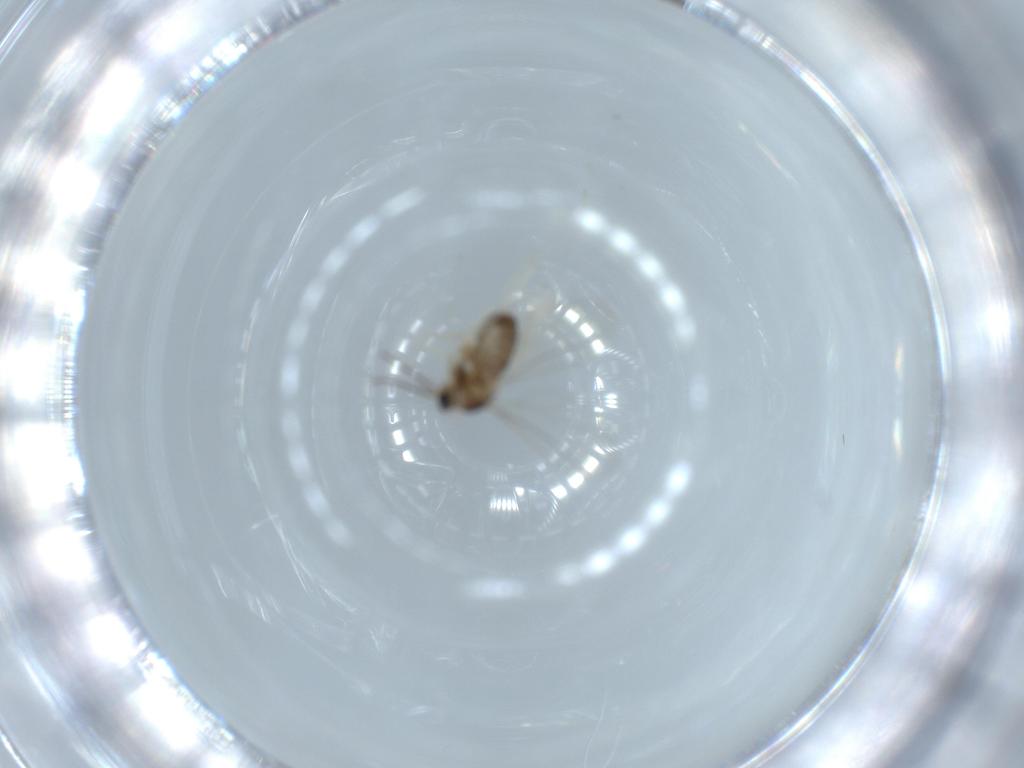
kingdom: Animalia
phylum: Arthropoda
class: Insecta
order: Diptera
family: Cecidomyiidae
